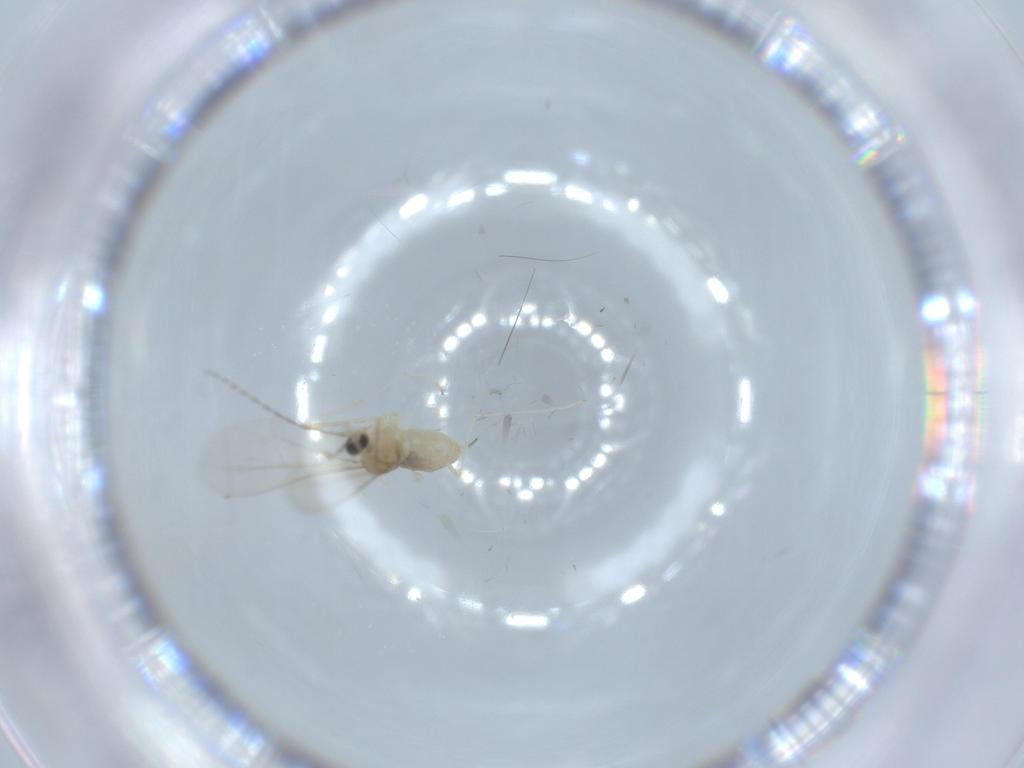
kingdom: Animalia
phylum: Arthropoda
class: Insecta
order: Diptera
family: Cecidomyiidae
